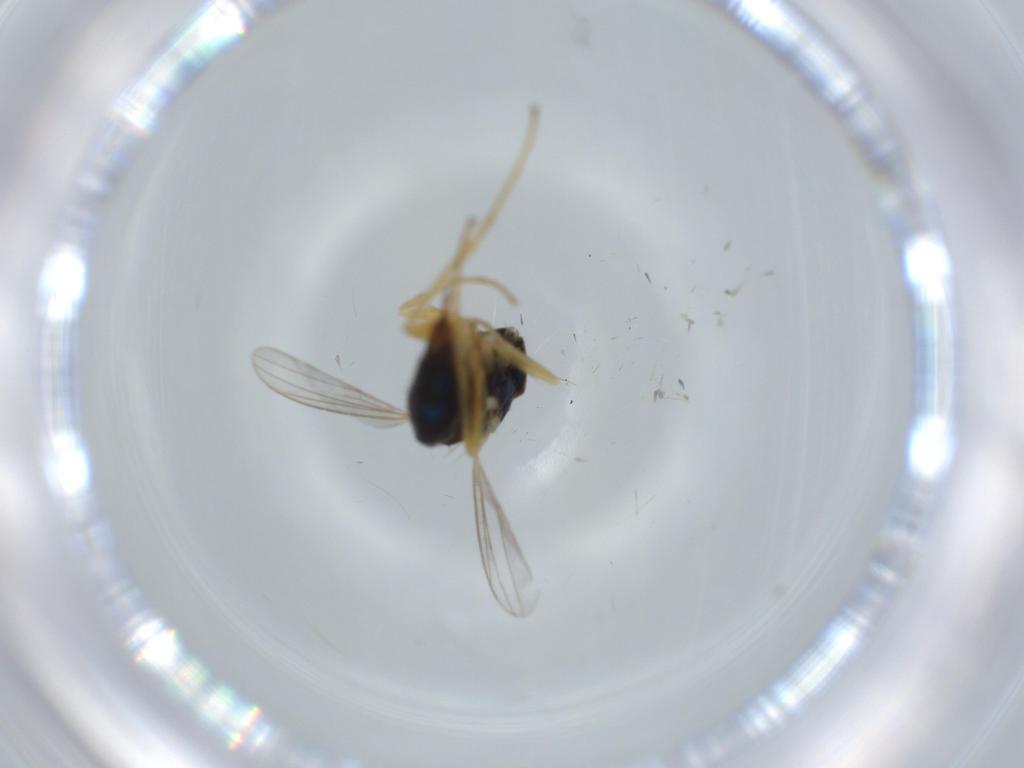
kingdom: Animalia
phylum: Arthropoda
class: Insecta
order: Diptera
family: Dolichopodidae
